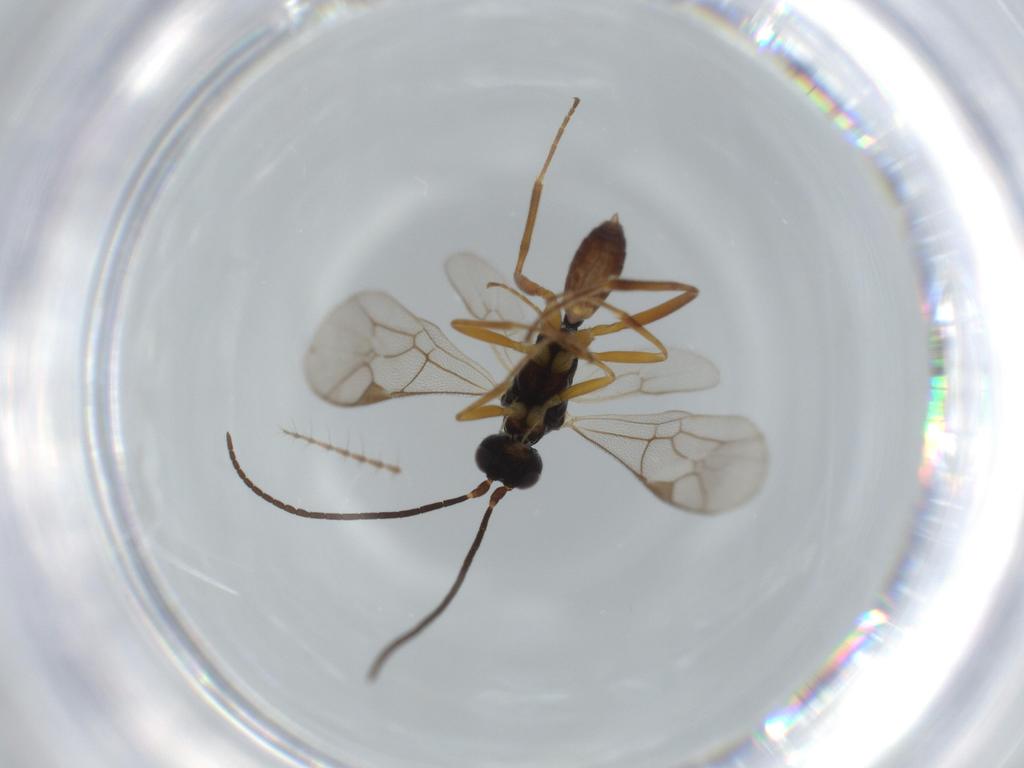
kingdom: Animalia
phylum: Arthropoda
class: Insecta
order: Hymenoptera
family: Ichneumonidae
